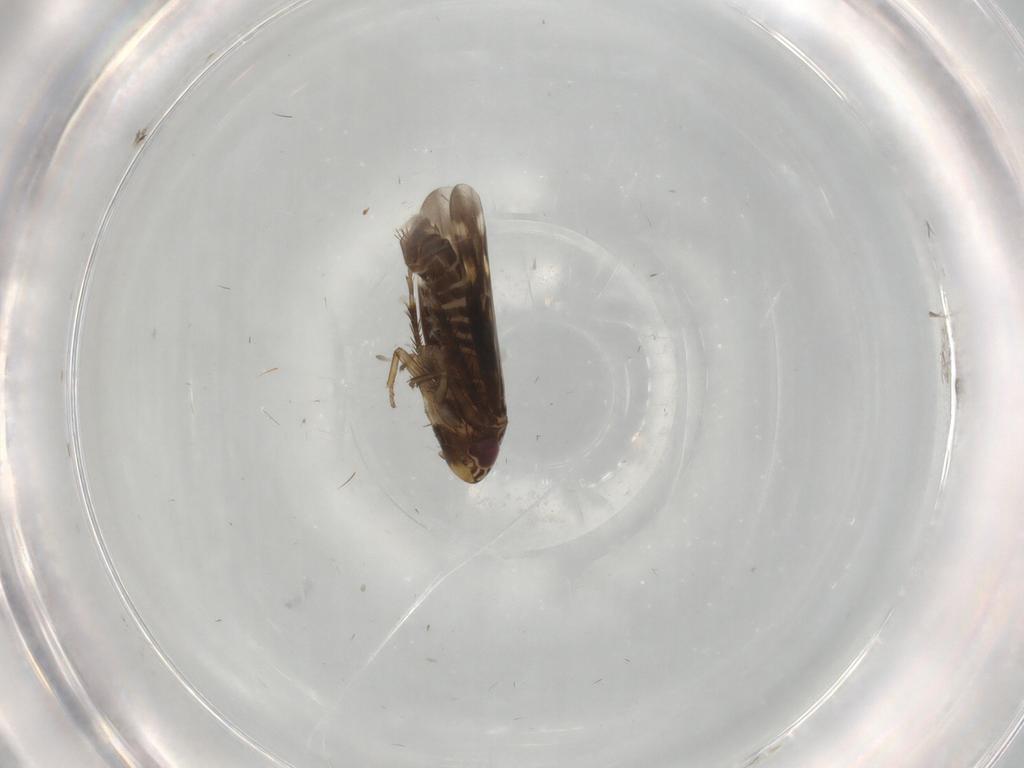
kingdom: Animalia
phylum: Arthropoda
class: Insecta
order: Hemiptera
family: Cicadellidae
